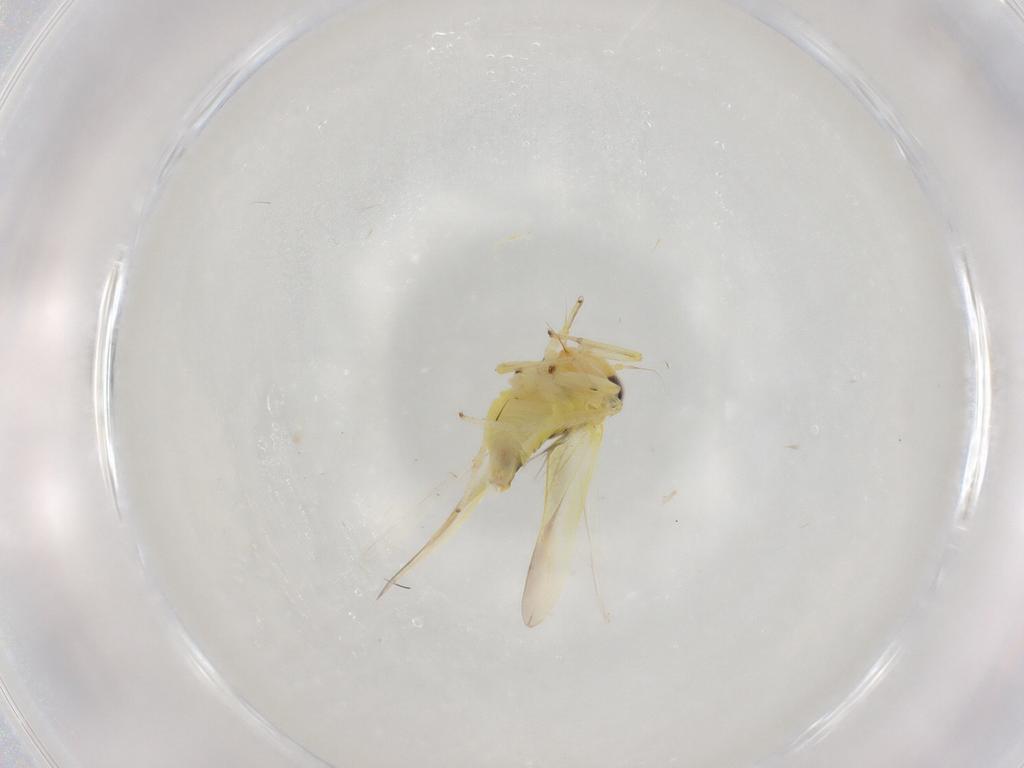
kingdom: Animalia
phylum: Arthropoda
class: Insecta
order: Hemiptera
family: Cicadellidae
